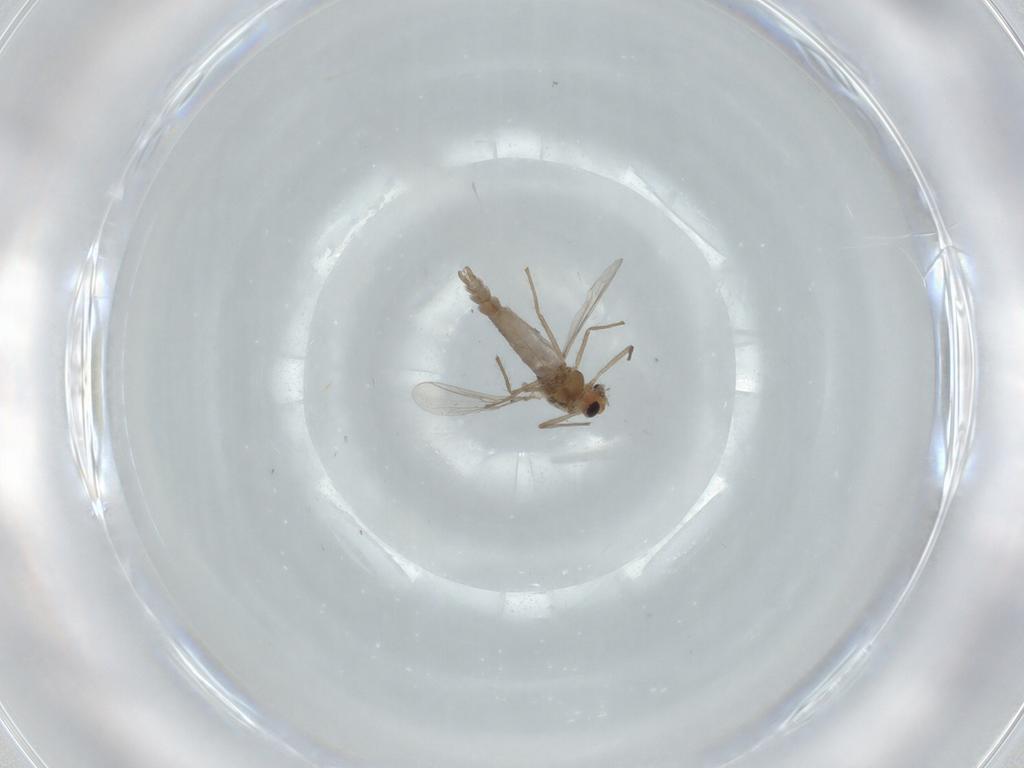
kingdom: Animalia
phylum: Arthropoda
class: Insecta
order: Diptera
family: Chironomidae
